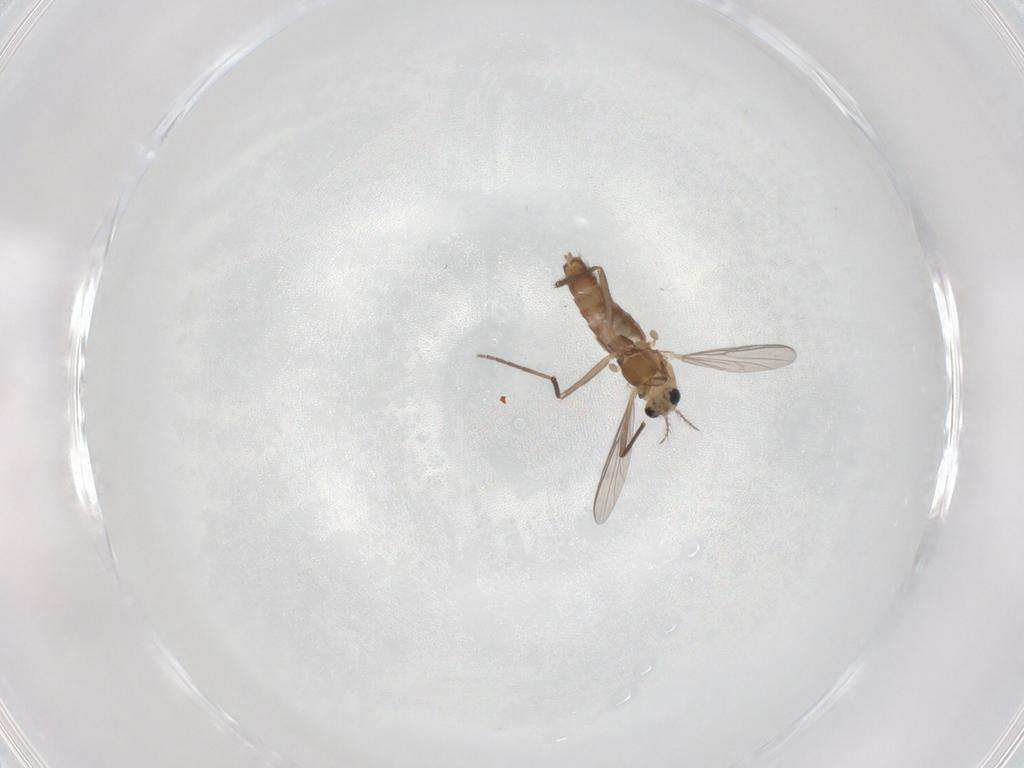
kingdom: Animalia
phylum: Arthropoda
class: Insecta
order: Diptera
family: Chironomidae
